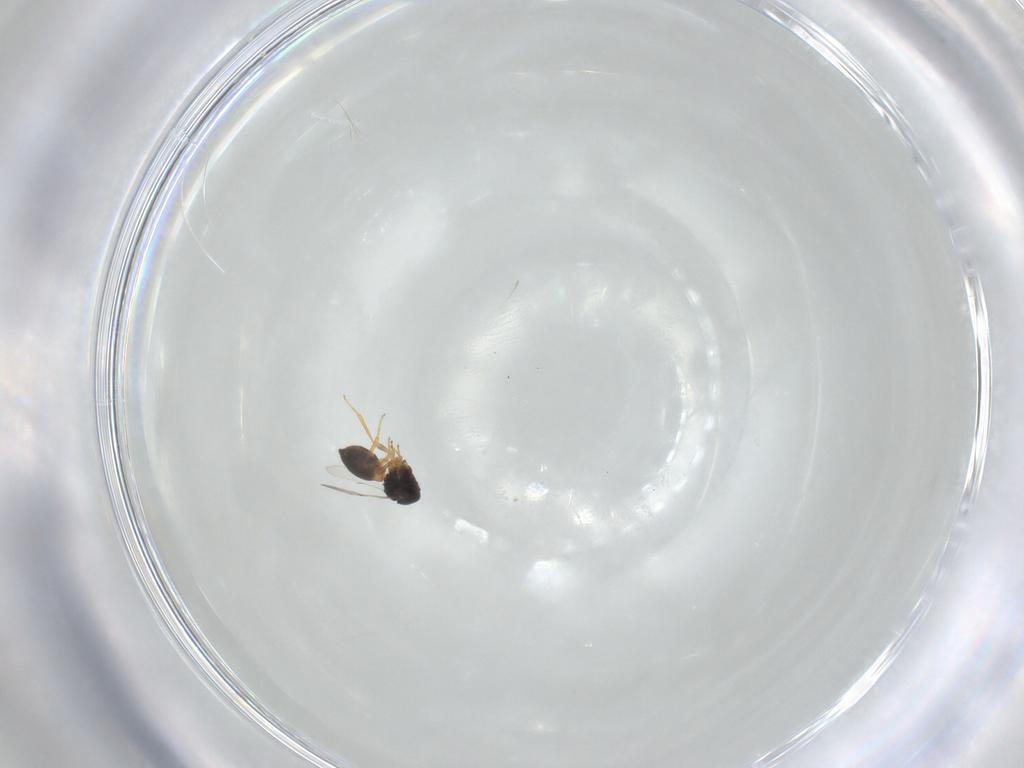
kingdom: Animalia
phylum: Arthropoda
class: Insecta
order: Hymenoptera
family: Scelionidae
